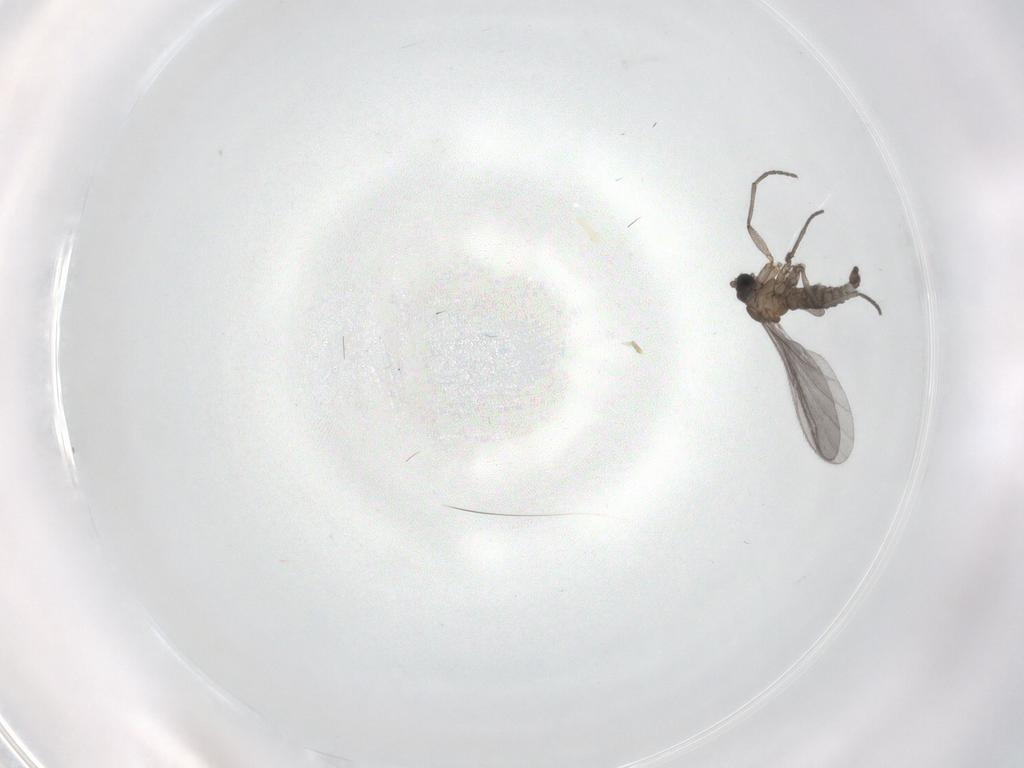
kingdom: Animalia
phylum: Arthropoda
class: Insecta
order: Diptera
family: Sciaridae
